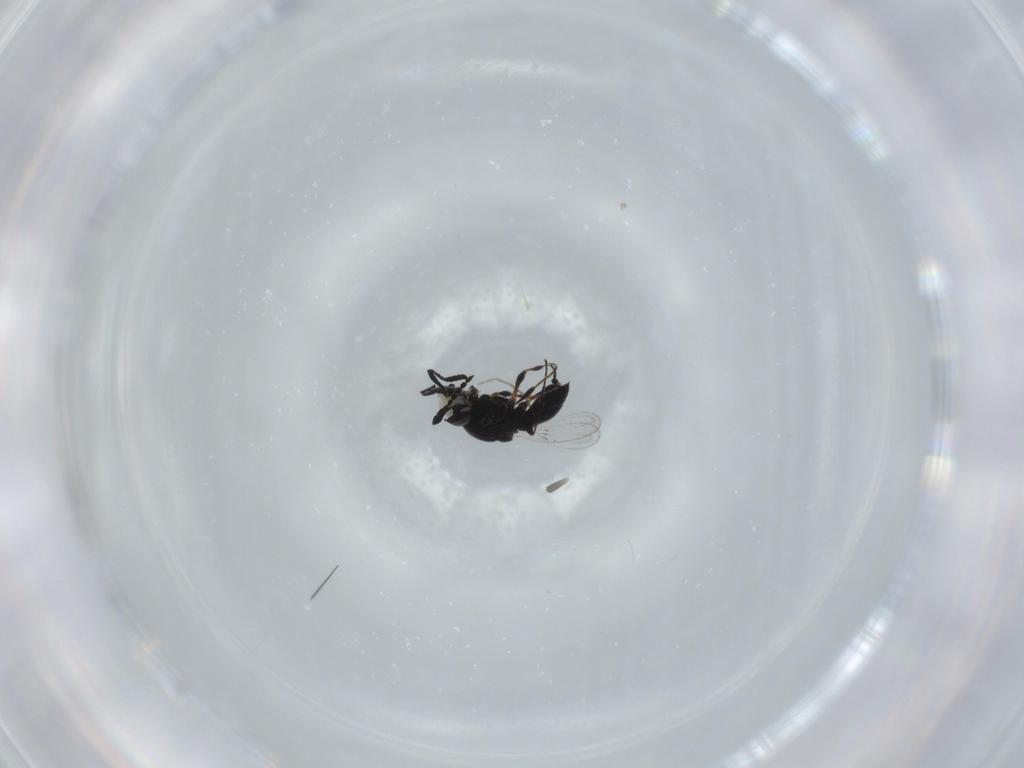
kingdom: Animalia
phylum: Arthropoda
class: Insecta
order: Hymenoptera
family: Platygastridae
